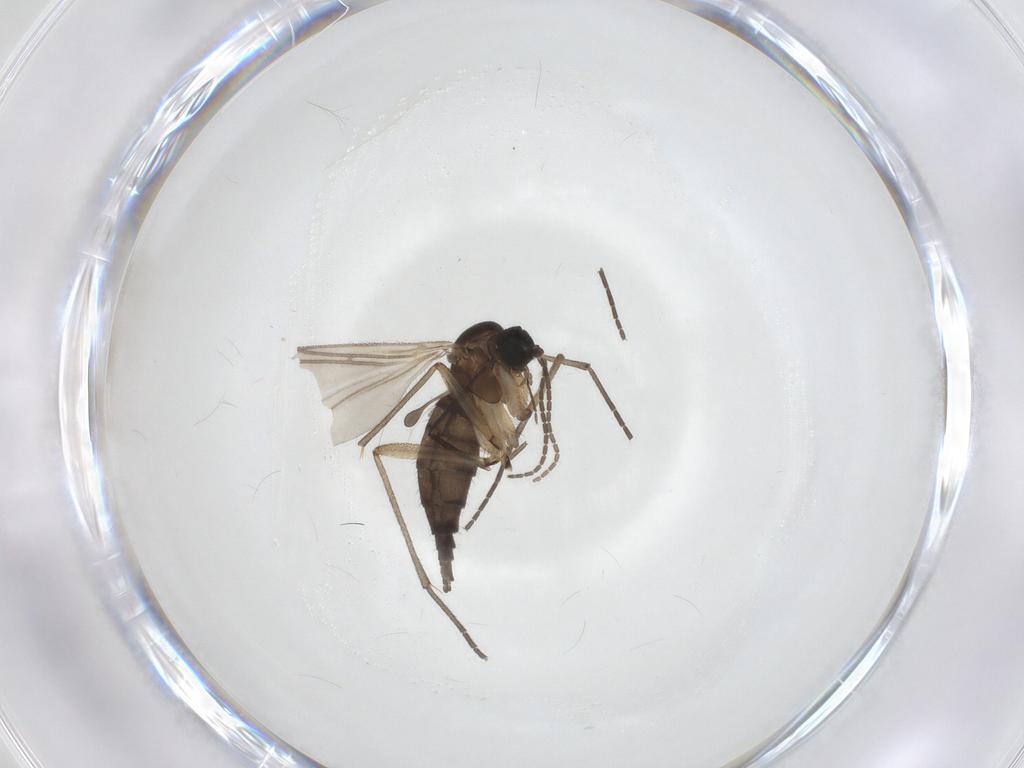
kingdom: Animalia
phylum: Arthropoda
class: Insecta
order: Diptera
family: Sciaridae
